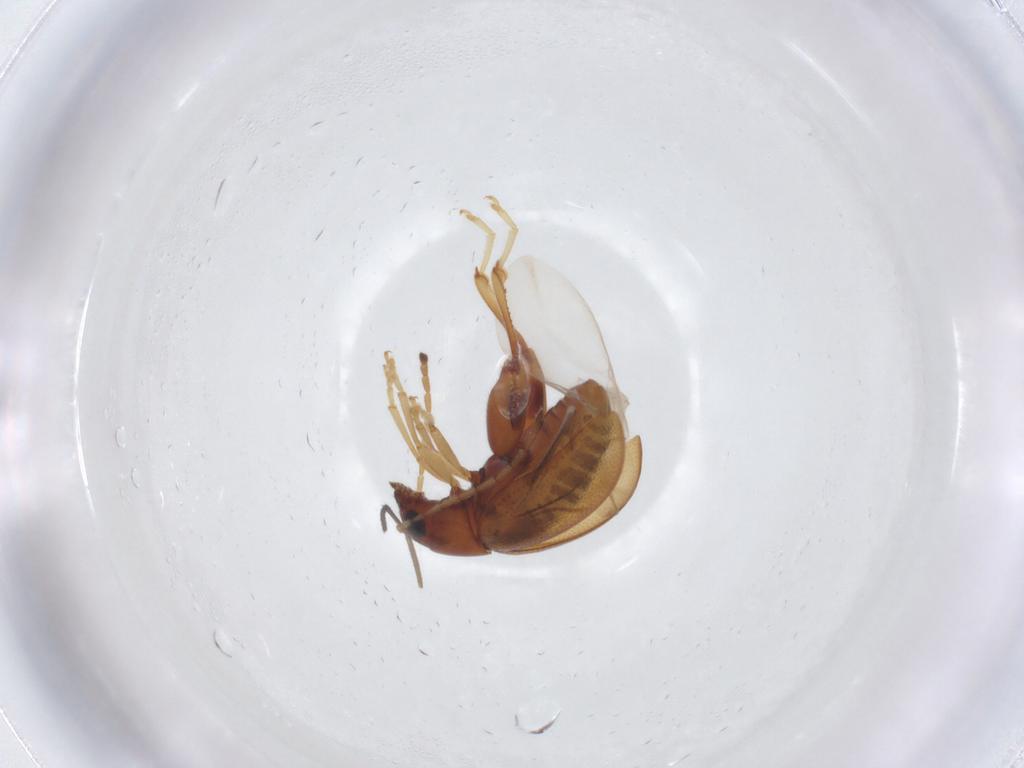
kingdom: Animalia
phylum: Arthropoda
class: Insecta
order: Coleoptera
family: Chrysomelidae
